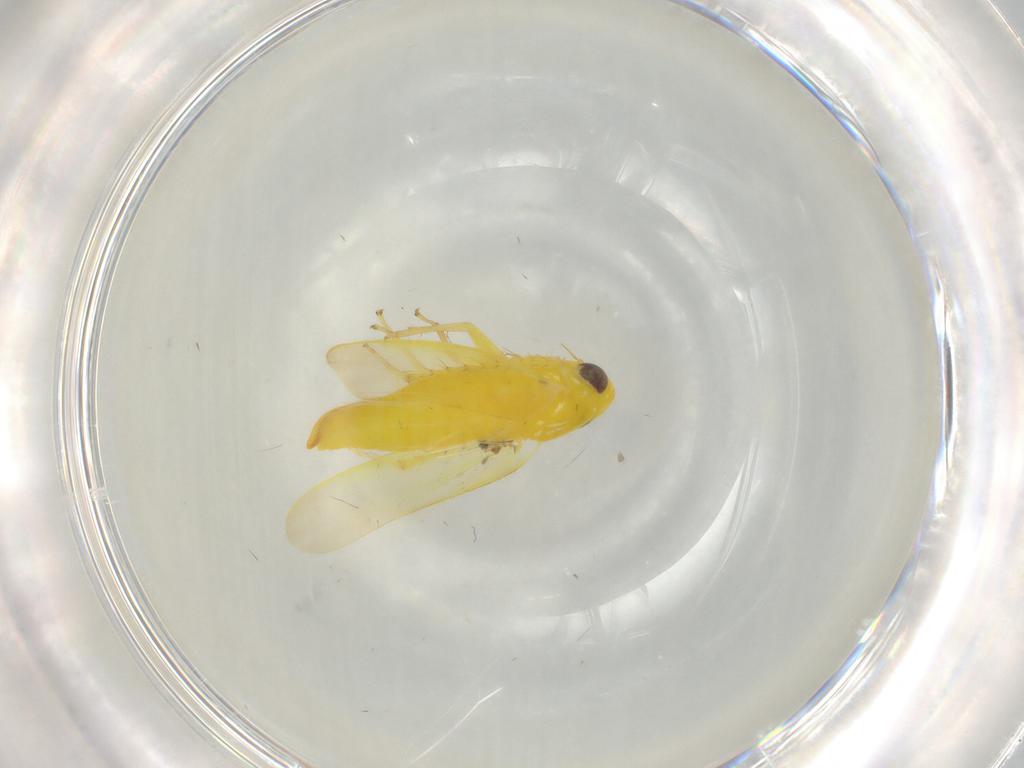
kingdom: Animalia
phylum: Arthropoda
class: Insecta
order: Hemiptera
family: Cicadellidae
